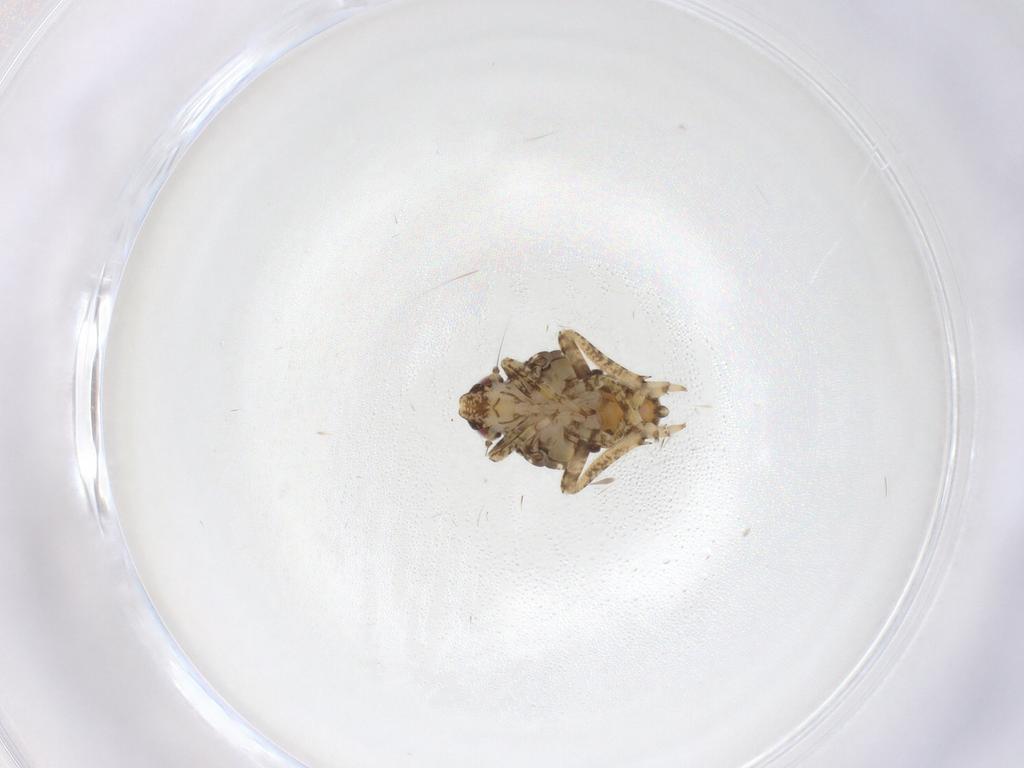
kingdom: Animalia
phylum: Arthropoda
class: Insecta
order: Hemiptera
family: Issidae
